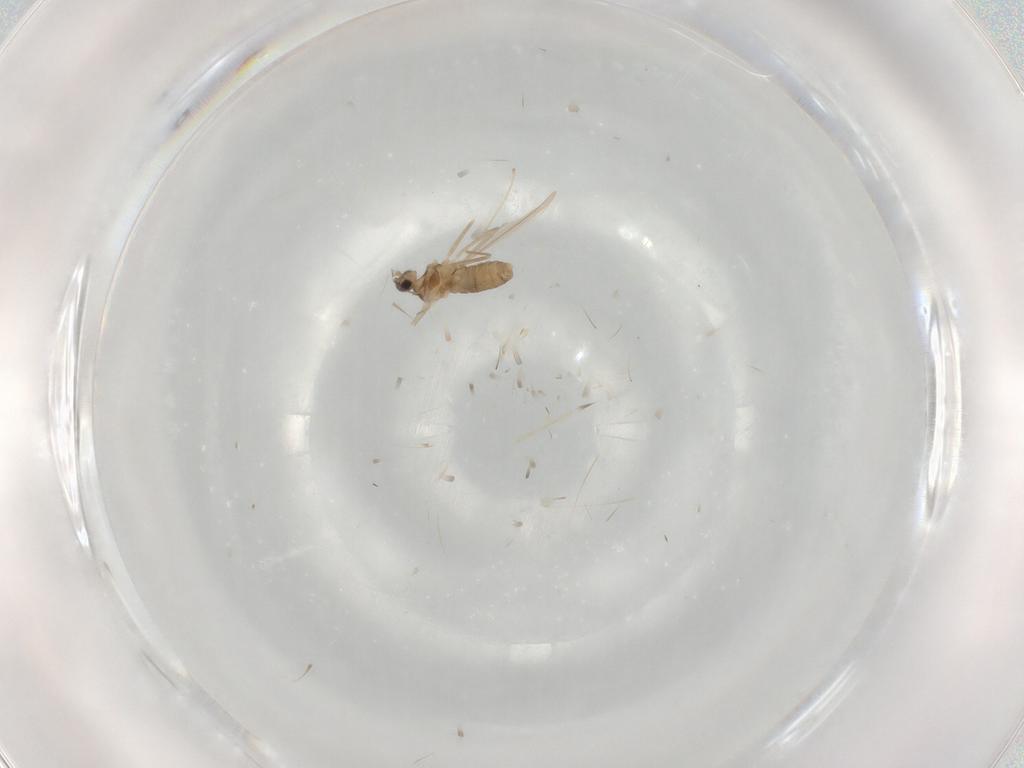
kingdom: Animalia
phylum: Arthropoda
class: Insecta
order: Diptera
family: Cecidomyiidae
